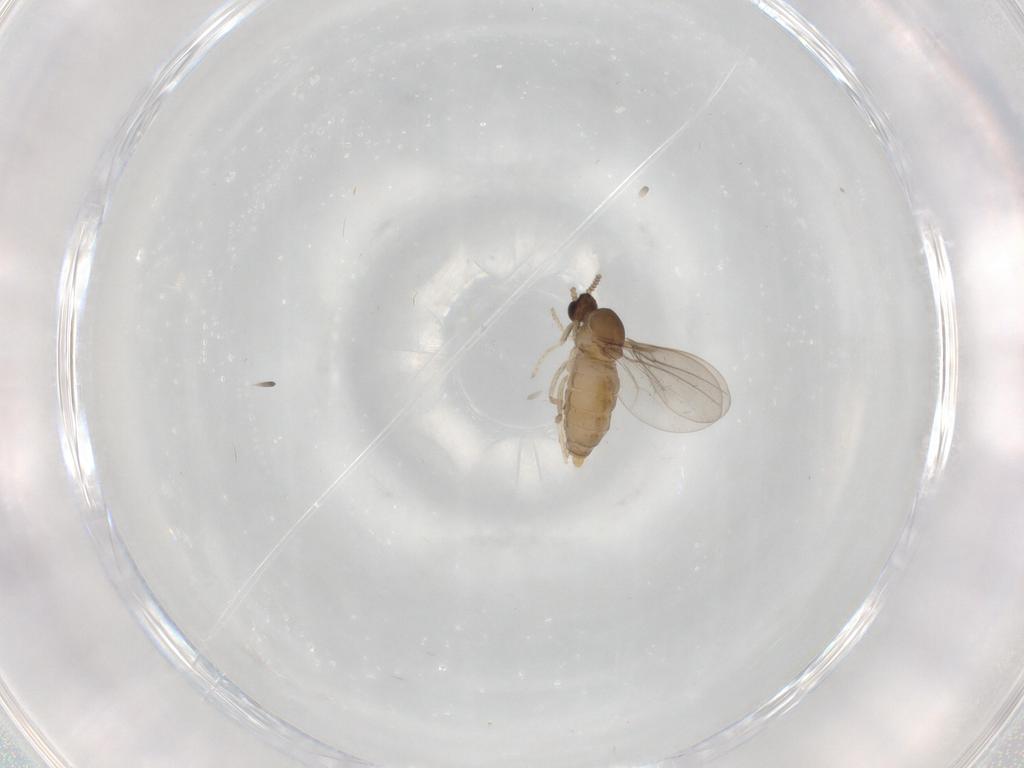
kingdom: Animalia
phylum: Arthropoda
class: Insecta
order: Diptera
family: Cecidomyiidae
